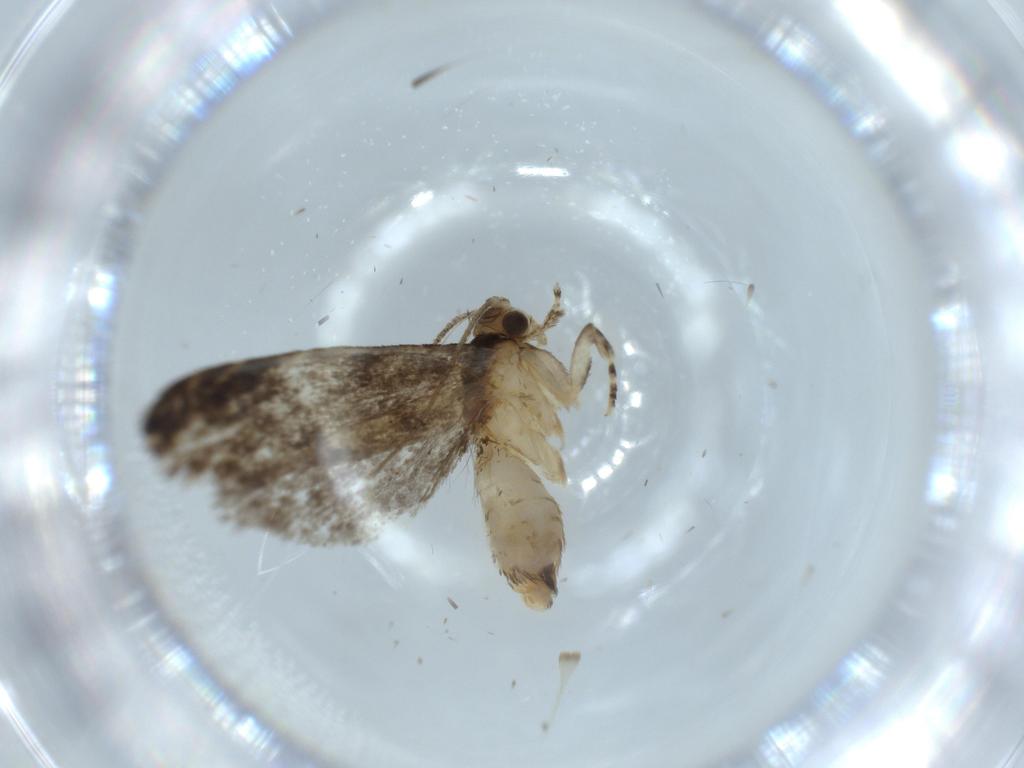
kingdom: Animalia
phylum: Arthropoda
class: Insecta
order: Lepidoptera
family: Tineidae
